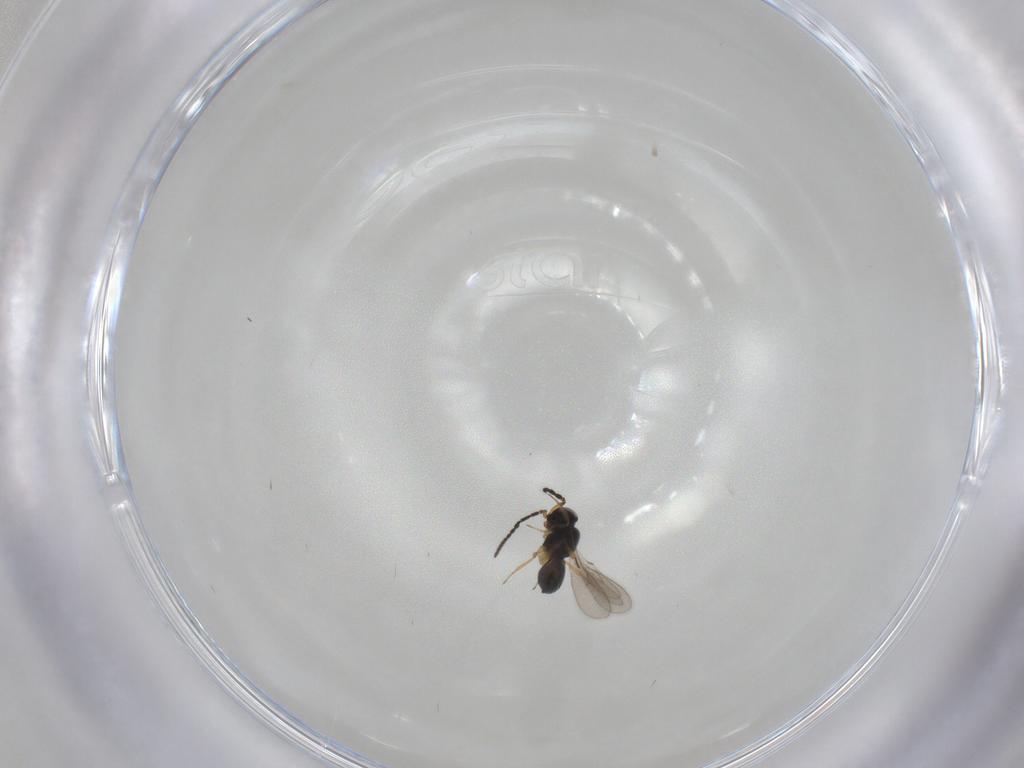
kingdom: Animalia
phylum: Arthropoda
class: Insecta
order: Hymenoptera
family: Scelionidae
